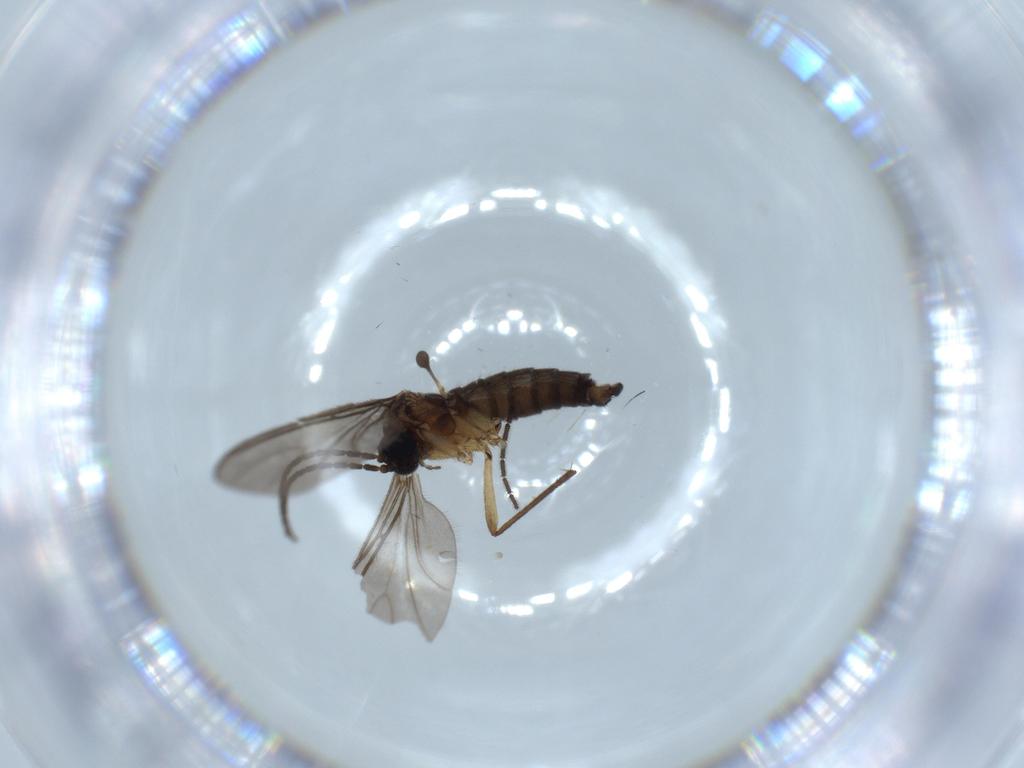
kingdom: Animalia
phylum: Arthropoda
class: Insecta
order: Diptera
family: Sciaridae
